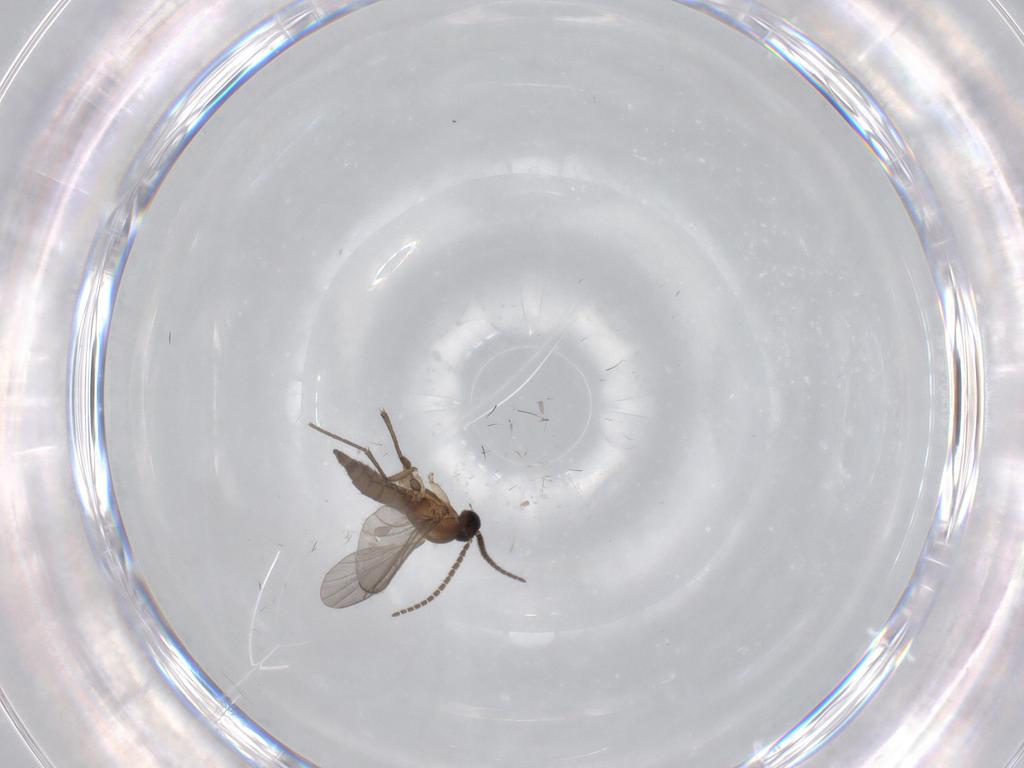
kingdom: Animalia
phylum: Arthropoda
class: Insecta
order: Diptera
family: Sciaridae
